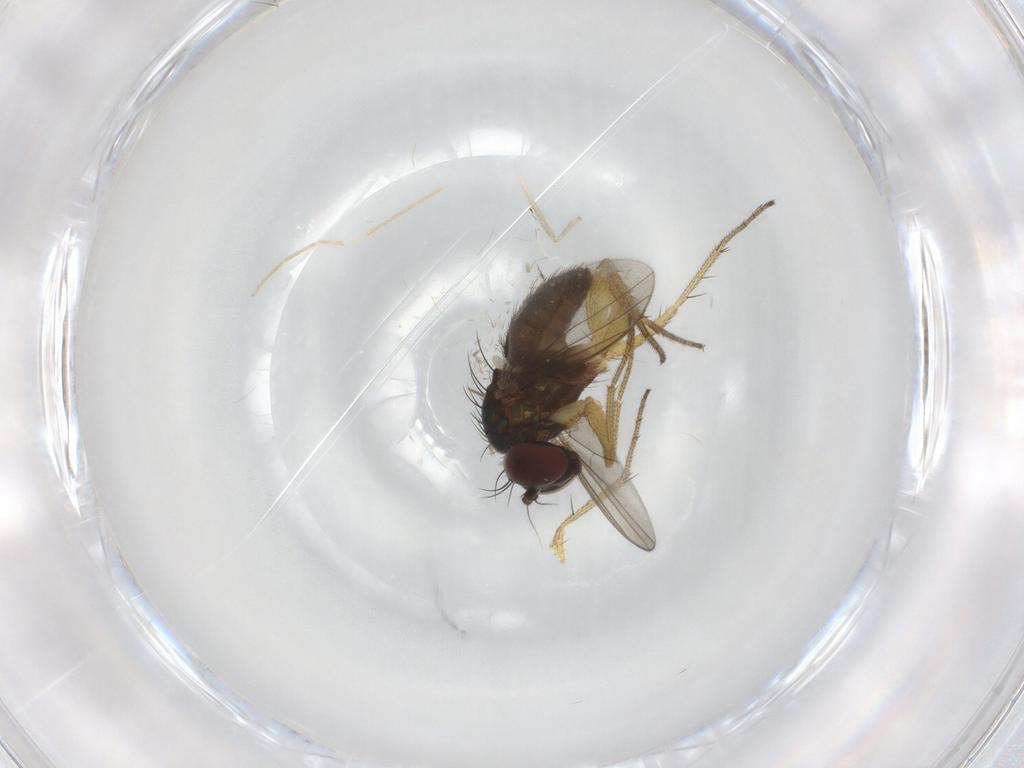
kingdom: Animalia
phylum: Arthropoda
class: Insecta
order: Diptera
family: Dolichopodidae
